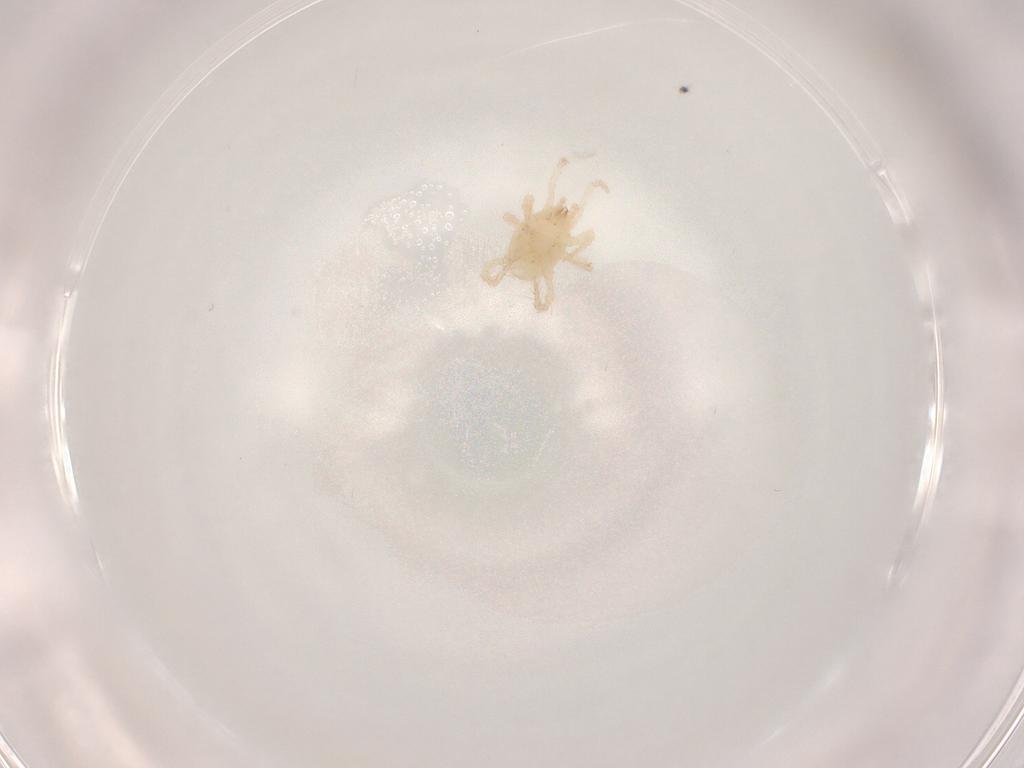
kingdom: Animalia
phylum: Arthropoda
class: Arachnida
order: Mesostigmata
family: Parasitidae
